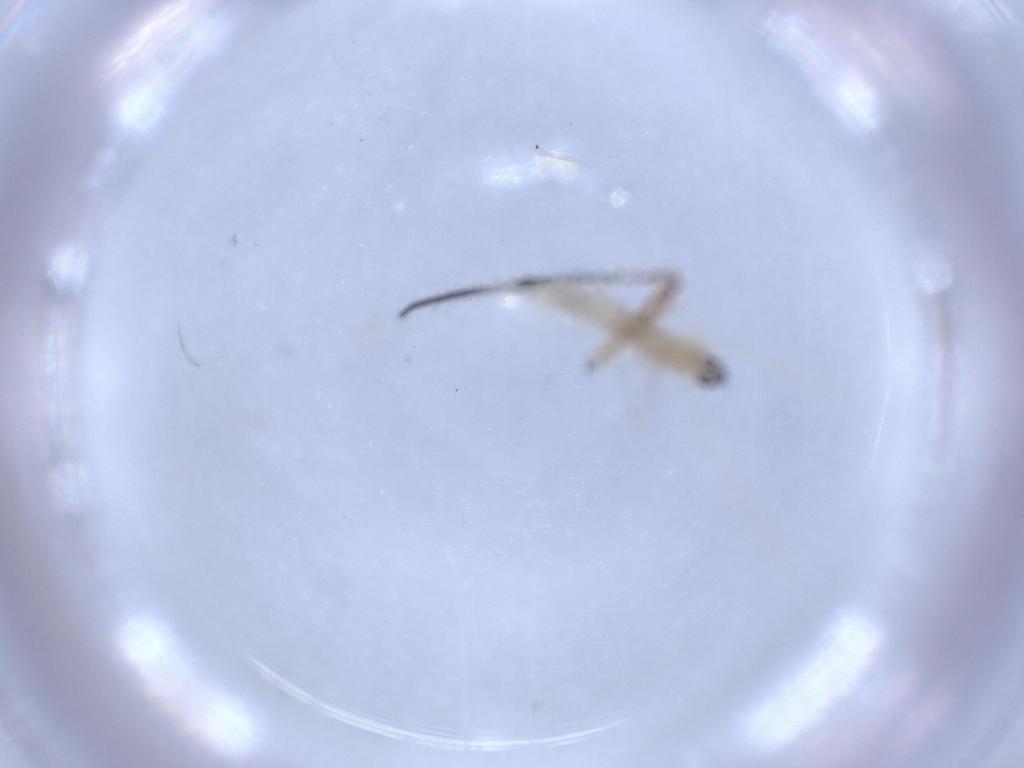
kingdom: Animalia
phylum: Arthropoda
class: Insecta
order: Diptera
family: Cecidomyiidae
